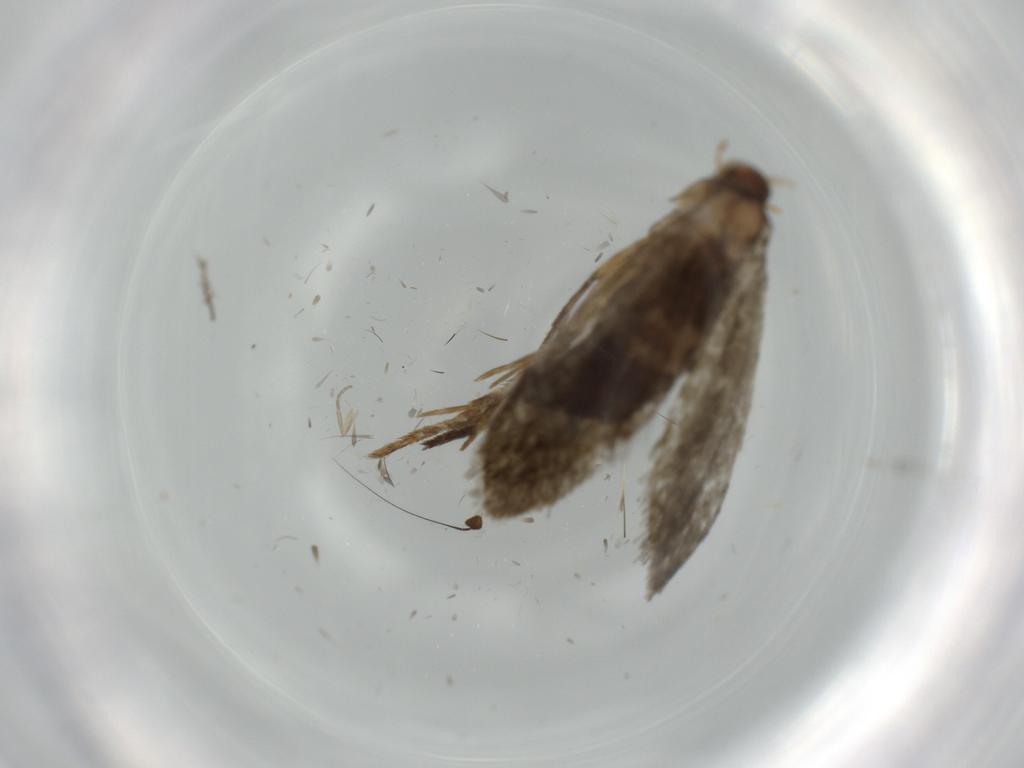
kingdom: Animalia
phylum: Arthropoda
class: Insecta
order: Lepidoptera
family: Tineidae
